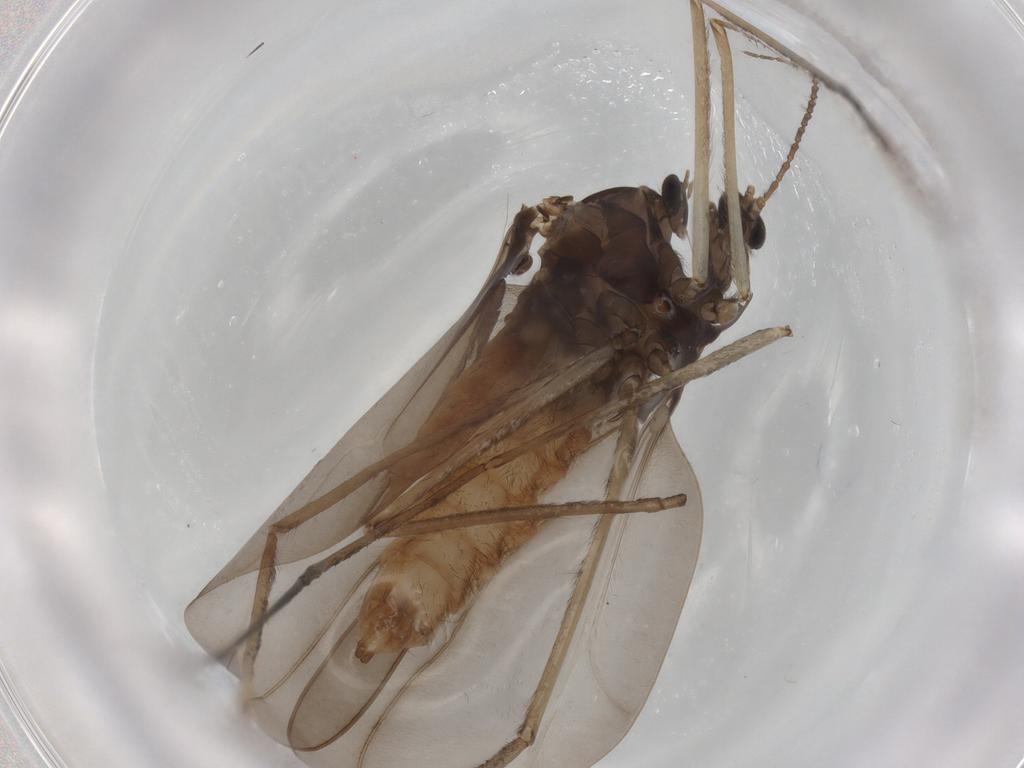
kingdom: Animalia
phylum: Arthropoda
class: Insecta
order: Diptera
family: Cecidomyiidae
